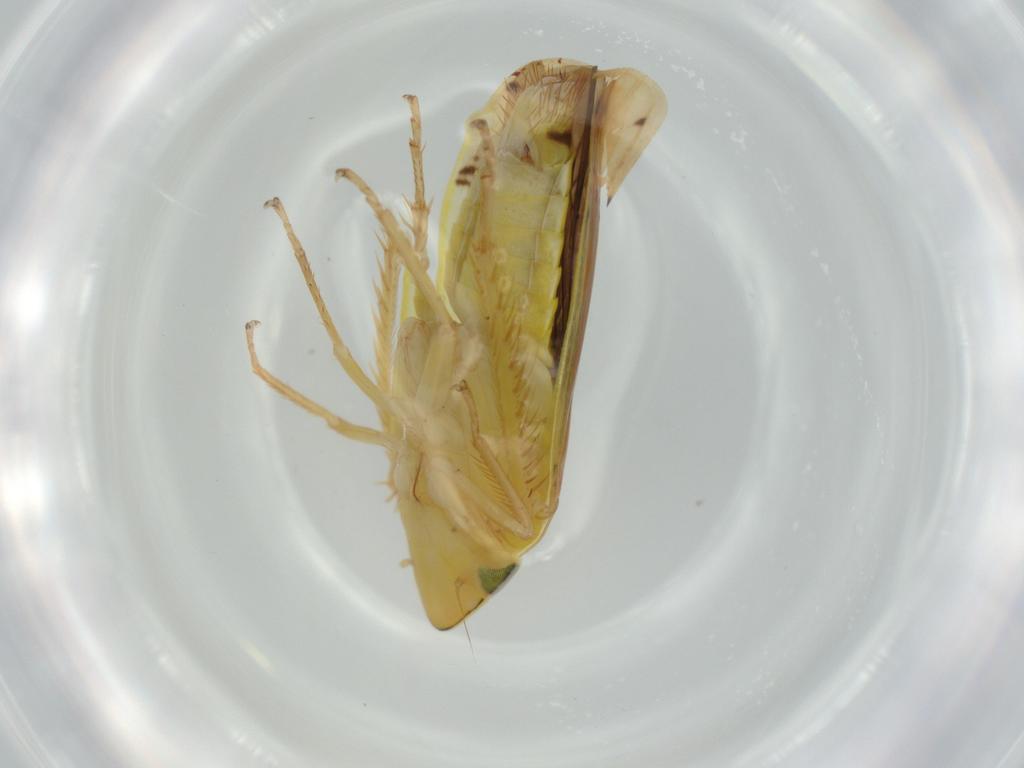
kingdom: Animalia
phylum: Arthropoda
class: Insecta
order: Hemiptera
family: Cicadellidae
